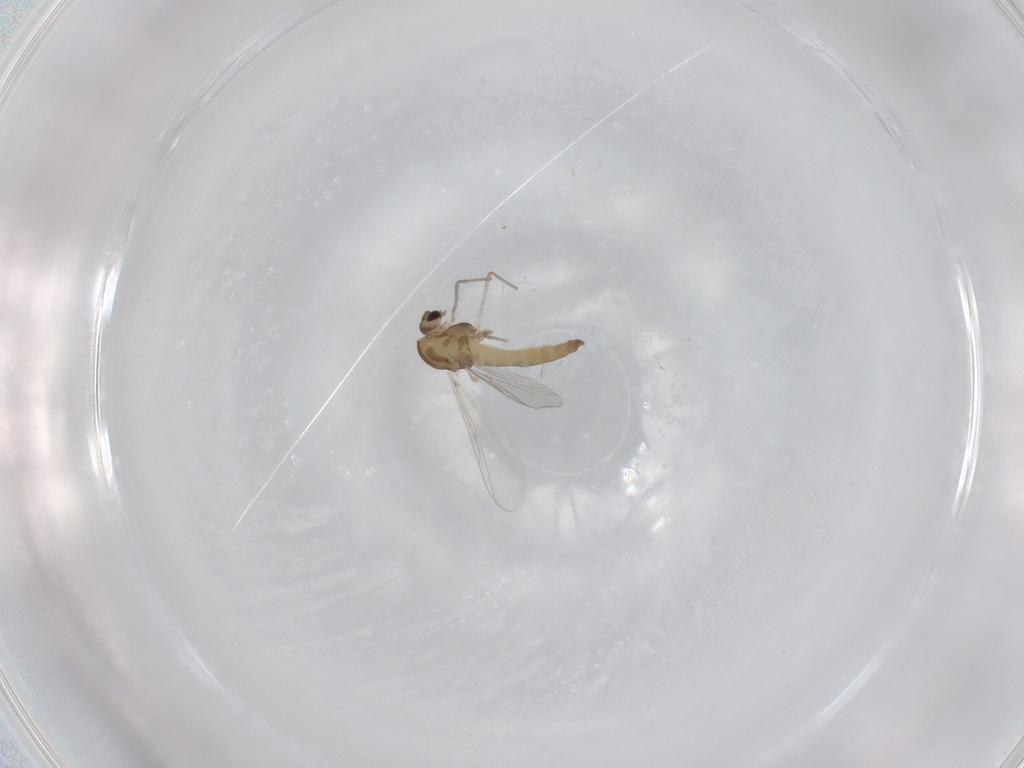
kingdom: Animalia
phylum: Arthropoda
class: Insecta
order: Diptera
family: Chironomidae
